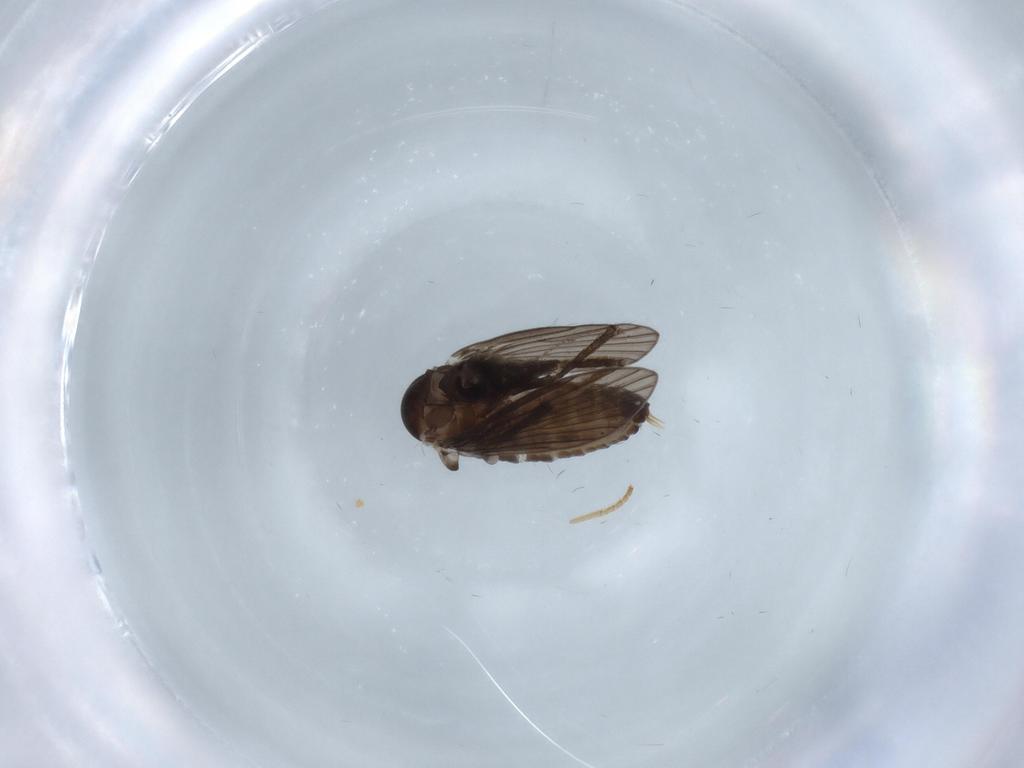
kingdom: Animalia
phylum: Arthropoda
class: Insecta
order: Diptera
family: Psychodidae
